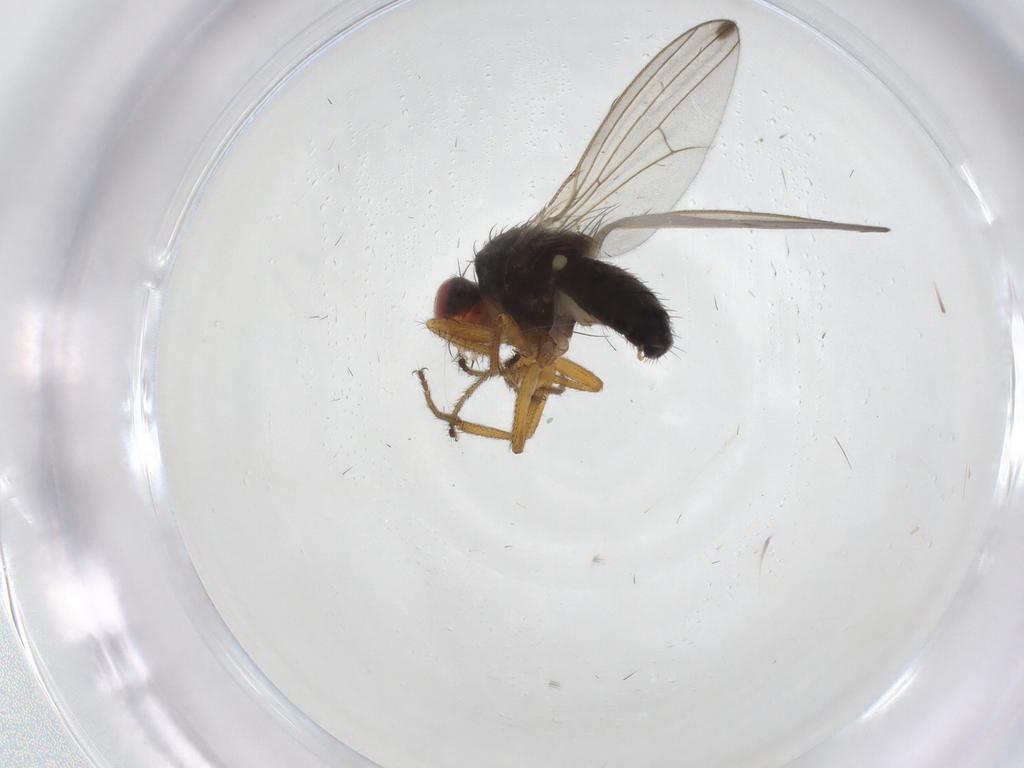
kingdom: Animalia
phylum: Arthropoda
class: Insecta
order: Diptera
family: Drosophilidae
